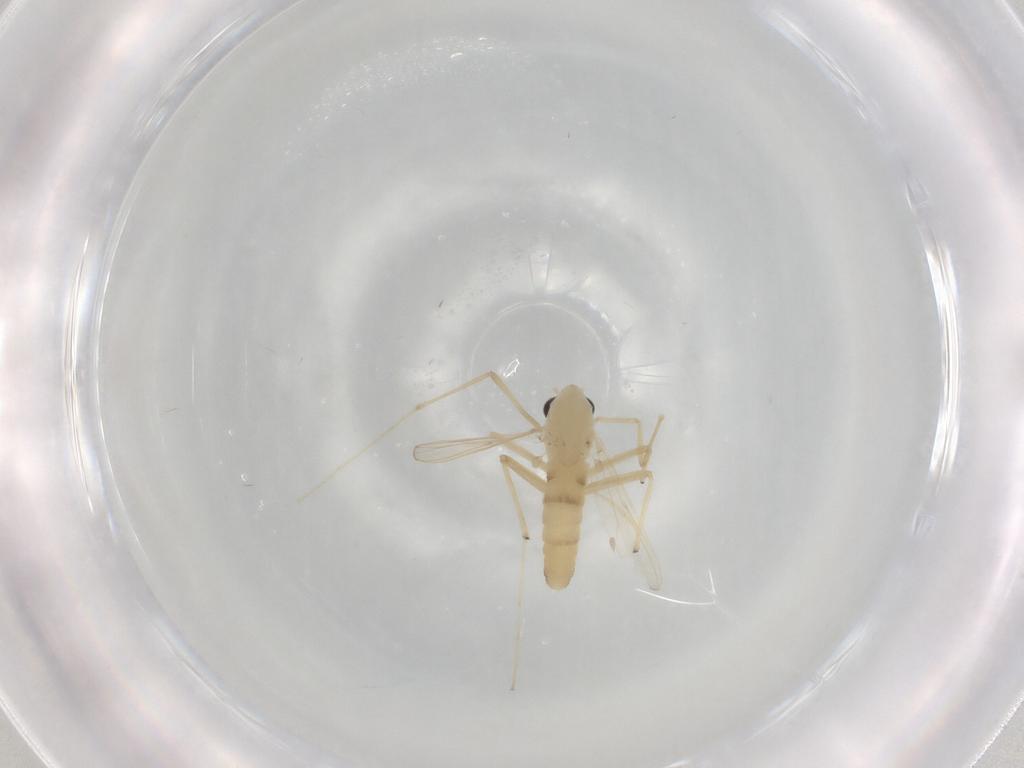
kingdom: Animalia
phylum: Arthropoda
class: Insecta
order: Diptera
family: Chironomidae
